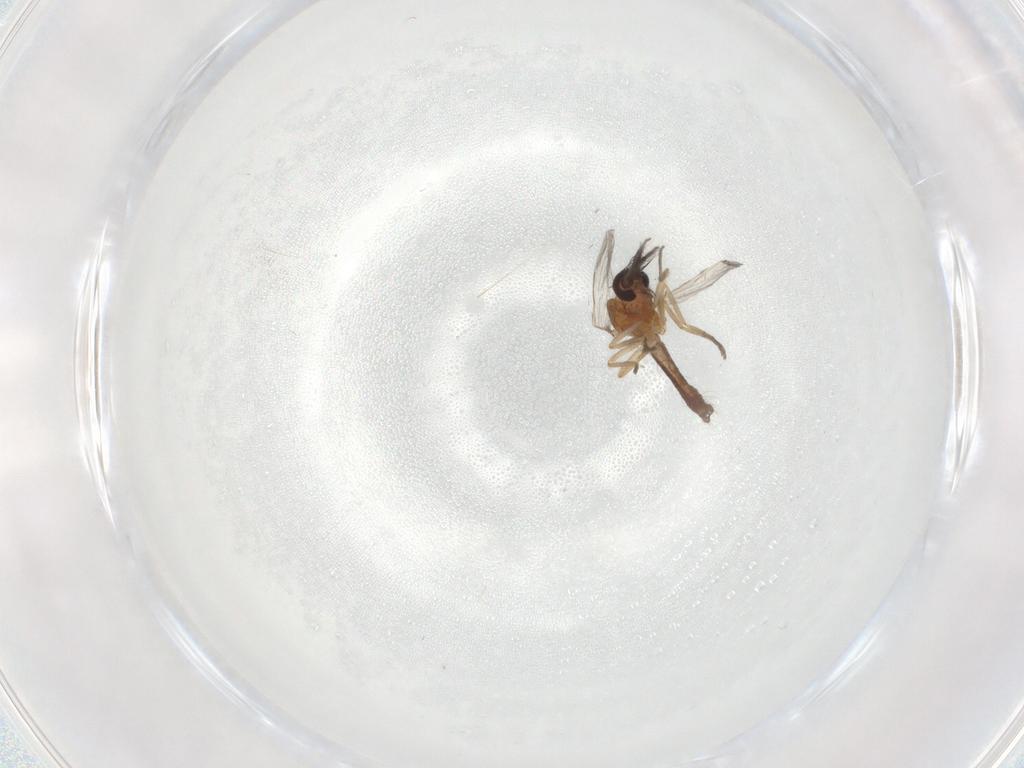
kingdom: Animalia
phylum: Arthropoda
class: Insecta
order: Diptera
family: Ceratopogonidae
